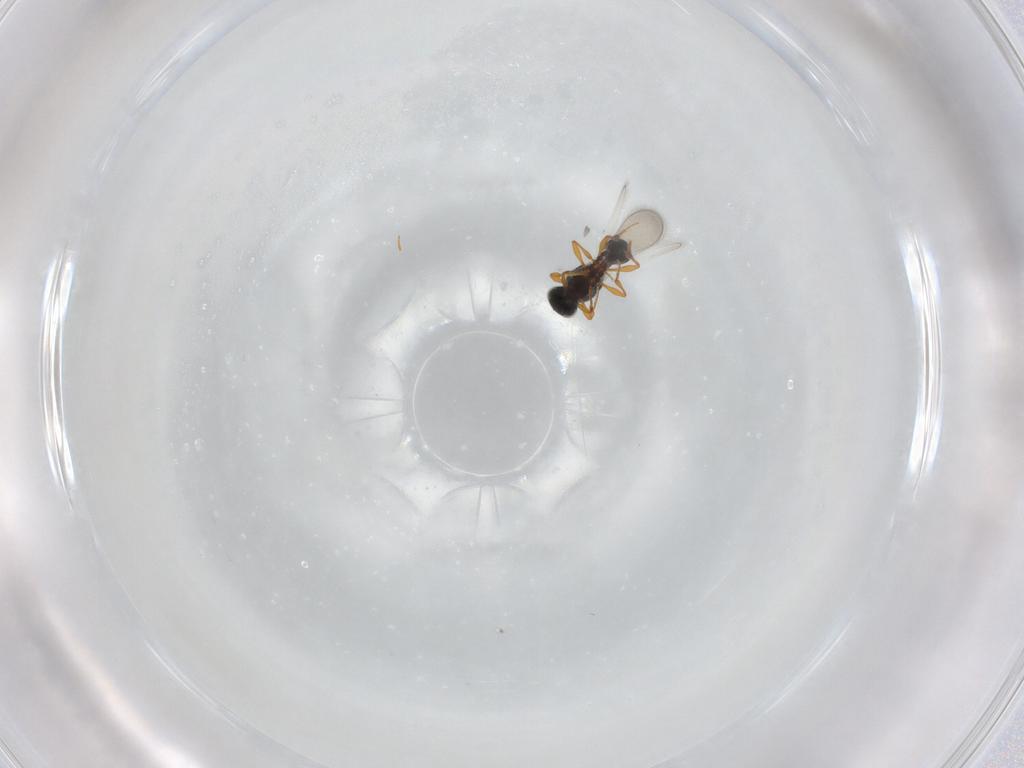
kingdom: Animalia
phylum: Arthropoda
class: Insecta
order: Hymenoptera
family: Platygastridae
